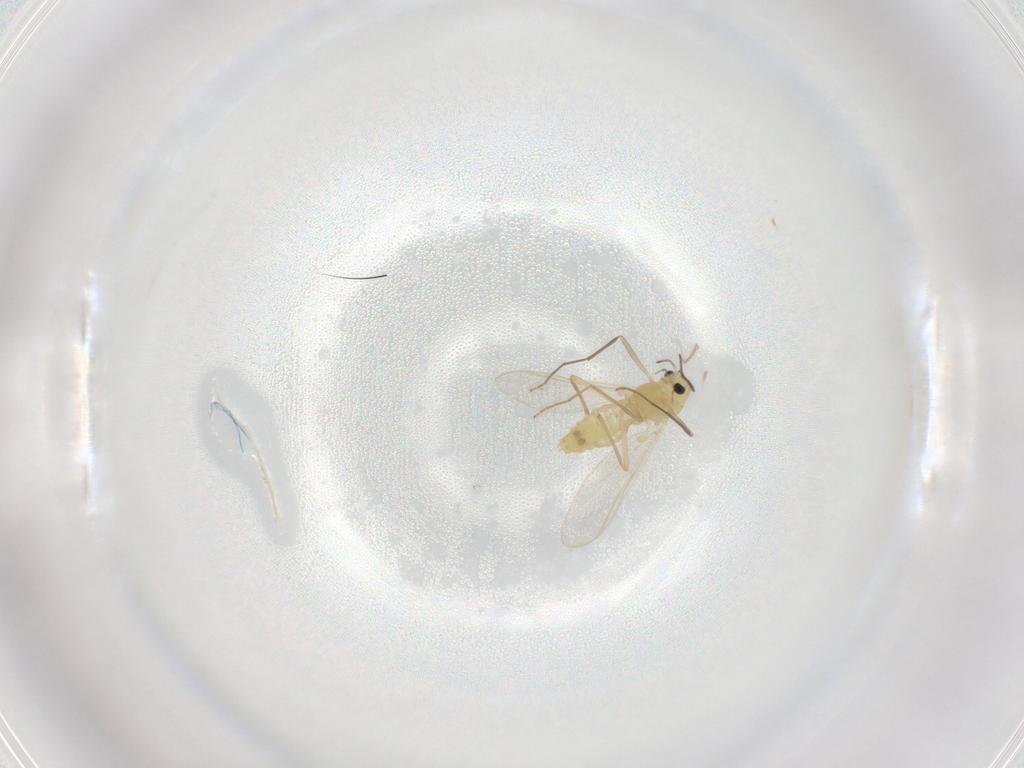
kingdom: Animalia
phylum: Arthropoda
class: Insecta
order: Diptera
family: Chironomidae
